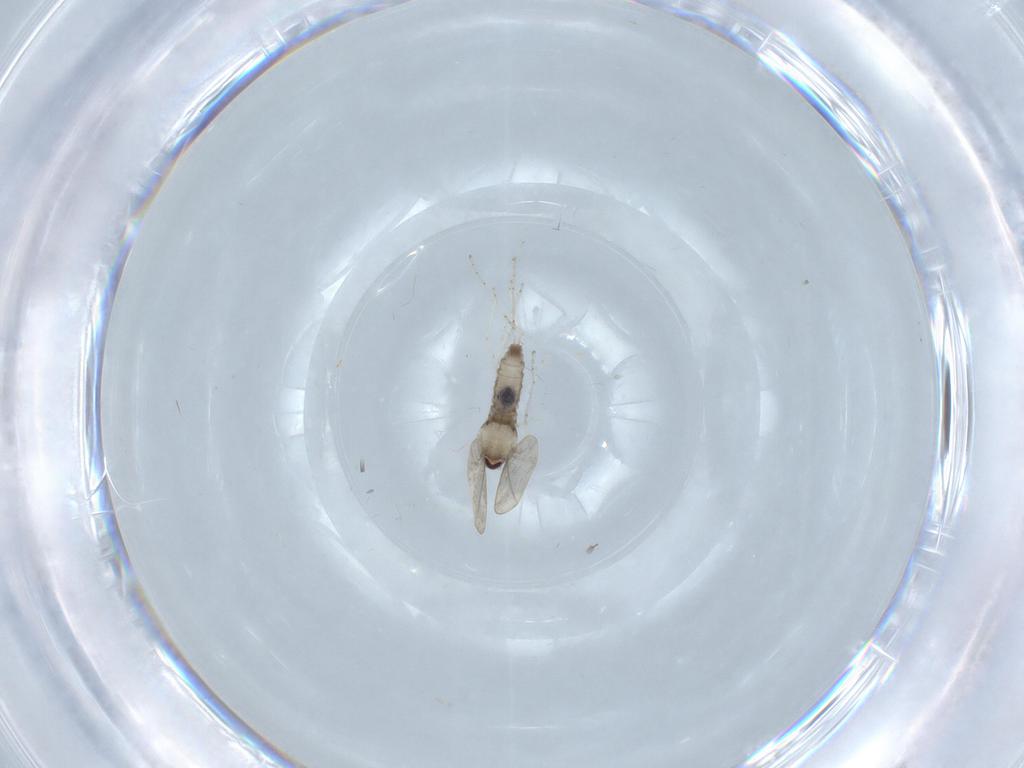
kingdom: Animalia
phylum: Arthropoda
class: Insecta
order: Diptera
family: Cecidomyiidae
